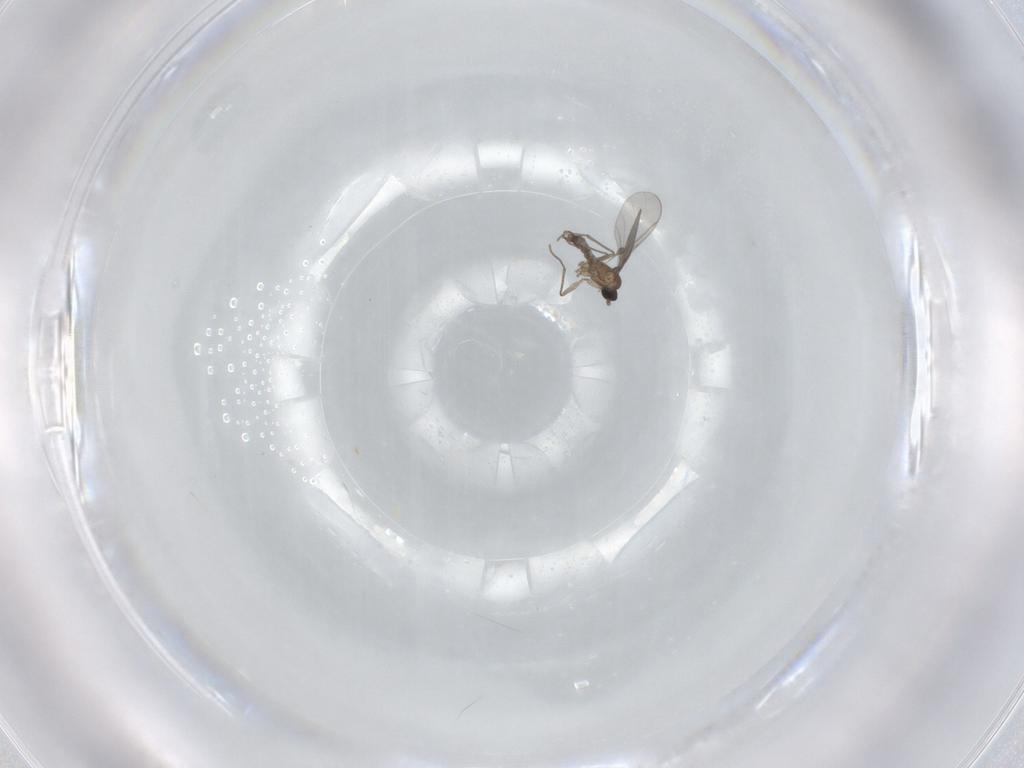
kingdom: Animalia
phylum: Arthropoda
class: Insecta
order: Diptera
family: Sciaridae
